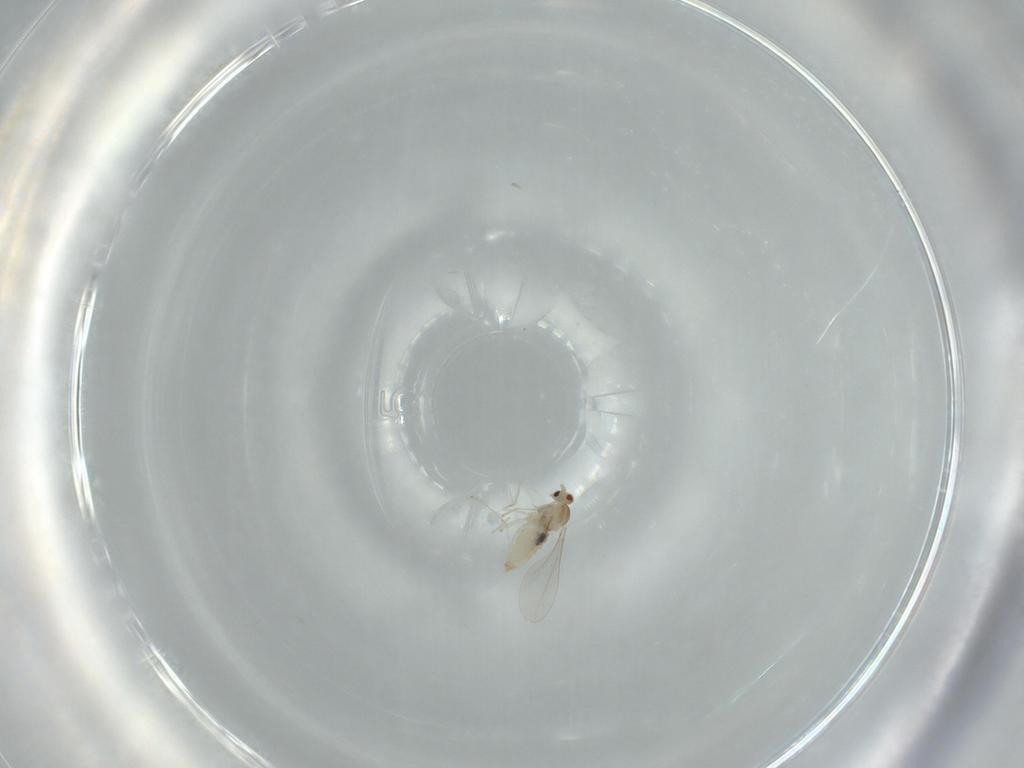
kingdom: Animalia
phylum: Arthropoda
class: Insecta
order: Diptera
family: Cecidomyiidae
